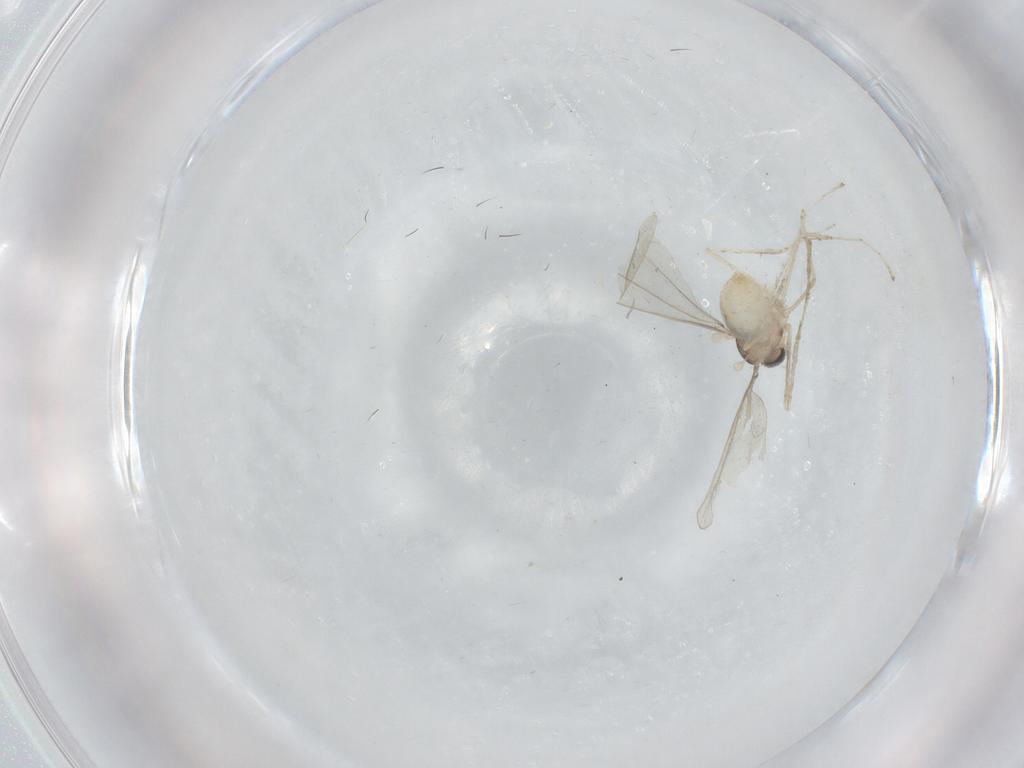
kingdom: Animalia
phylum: Arthropoda
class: Insecta
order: Diptera
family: Cecidomyiidae
